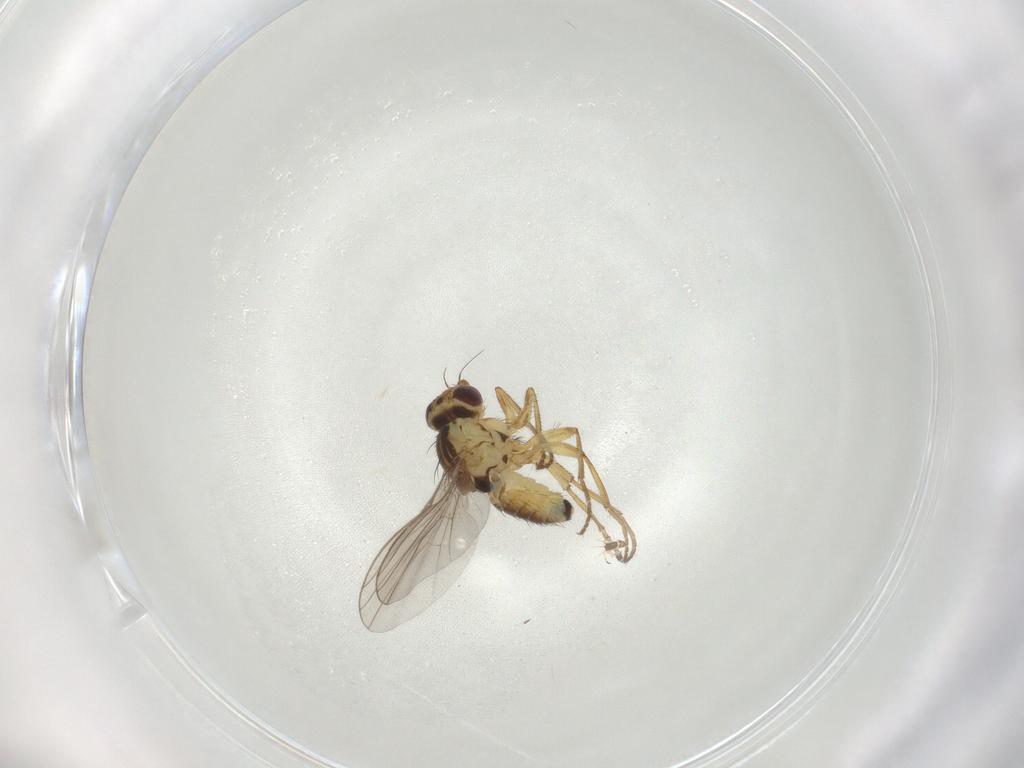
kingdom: Animalia
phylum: Arthropoda
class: Insecta
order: Diptera
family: Agromyzidae
